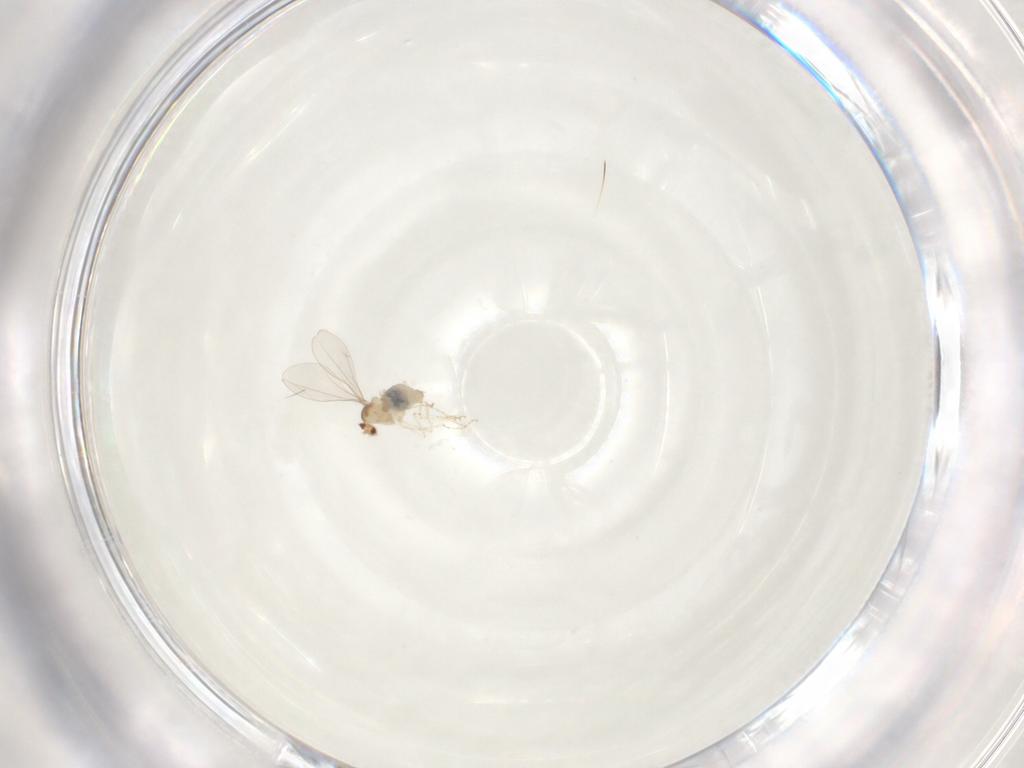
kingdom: Animalia
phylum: Arthropoda
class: Insecta
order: Diptera
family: Cecidomyiidae
